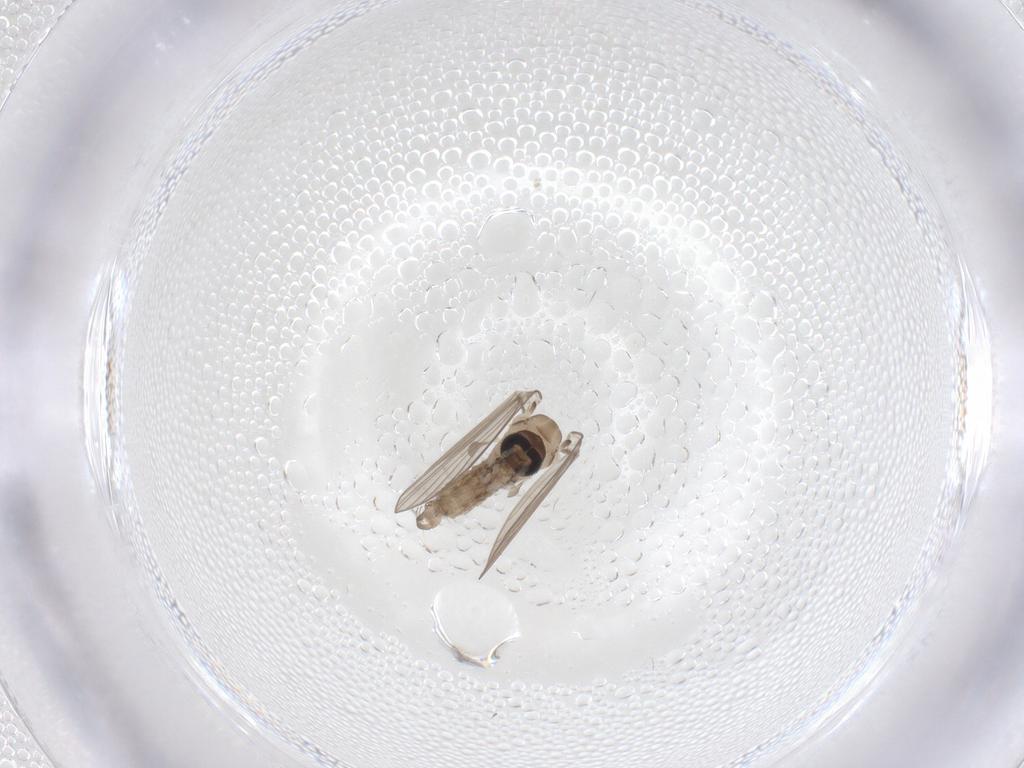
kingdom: Animalia
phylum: Arthropoda
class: Insecta
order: Diptera
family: Psychodidae
